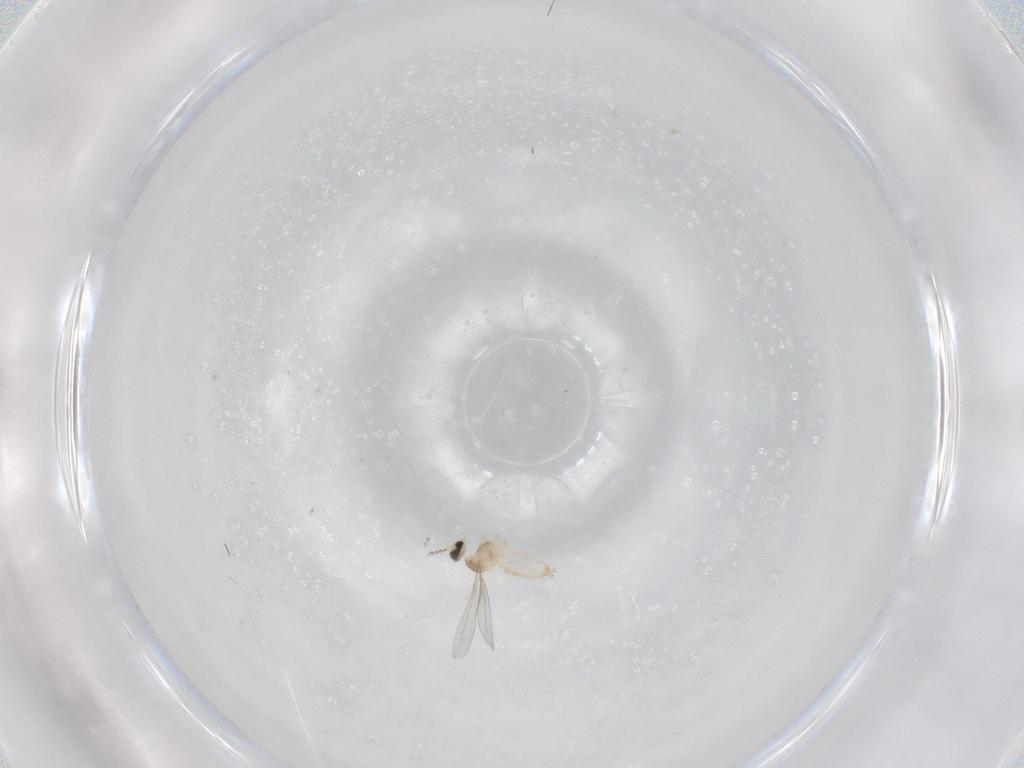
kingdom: Animalia
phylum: Arthropoda
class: Insecta
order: Diptera
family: Cecidomyiidae
